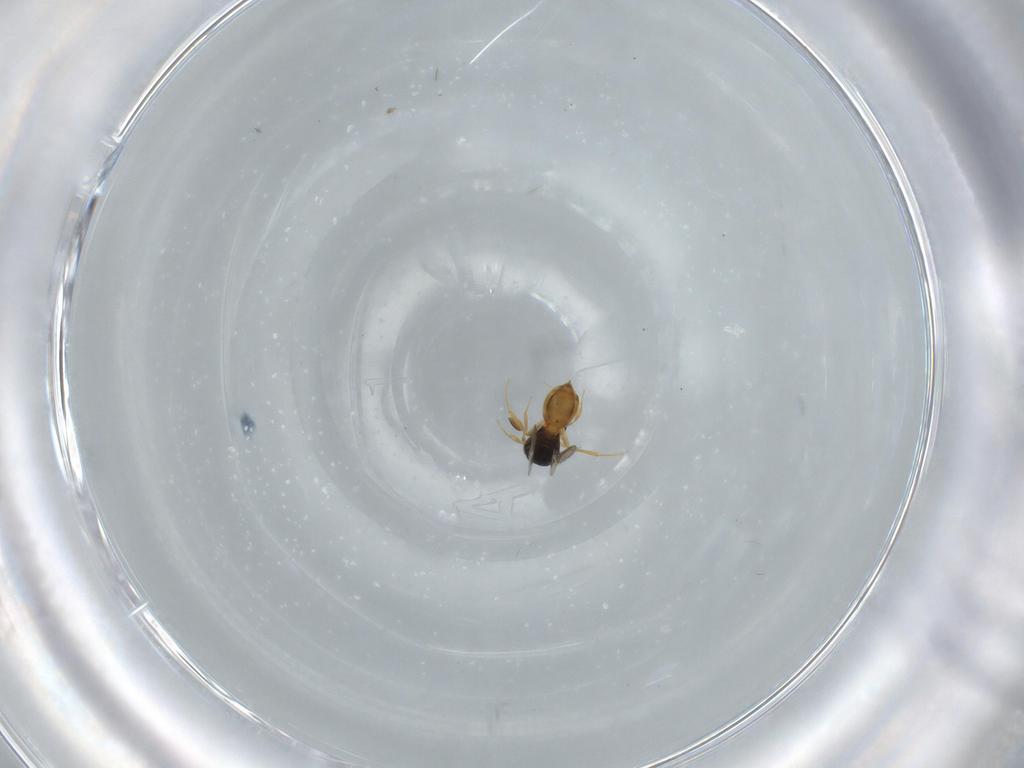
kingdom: Animalia
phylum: Arthropoda
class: Insecta
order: Hymenoptera
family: Scelionidae
